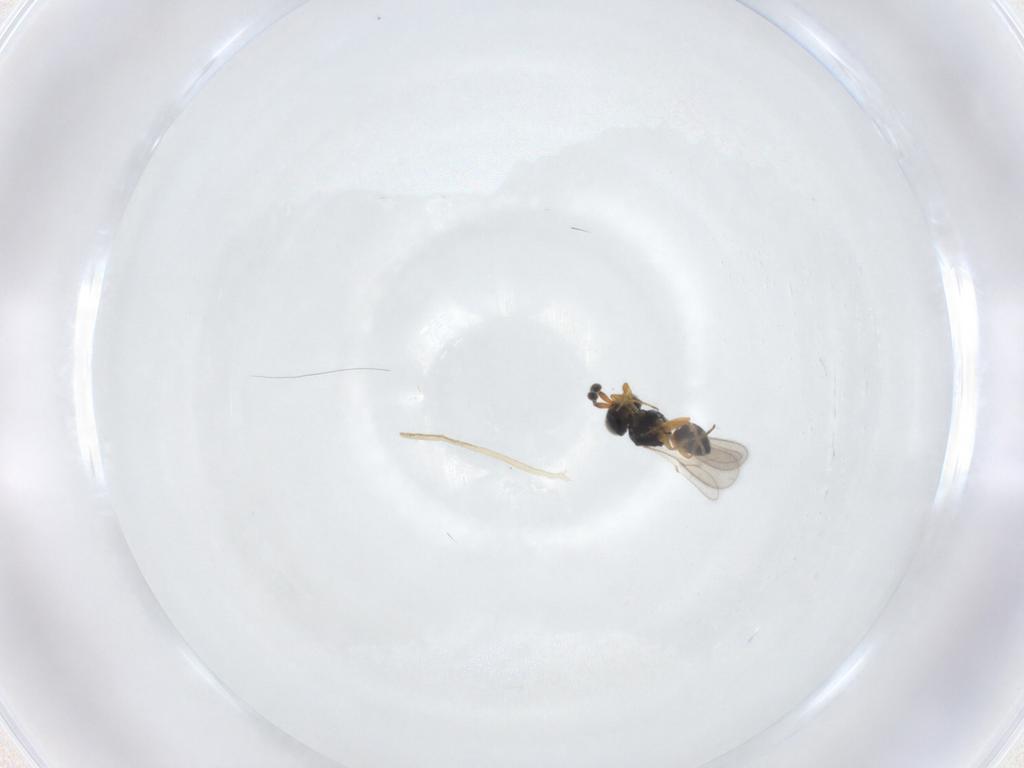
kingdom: Animalia
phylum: Arthropoda
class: Insecta
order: Hymenoptera
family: Scelionidae
